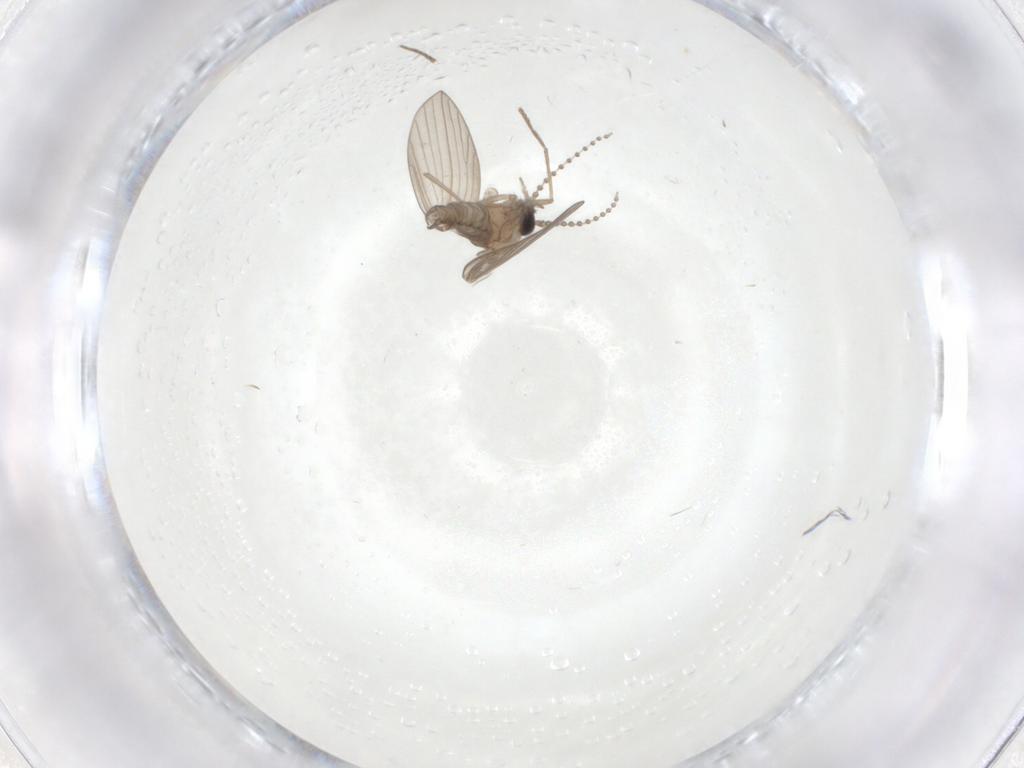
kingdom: Animalia
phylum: Arthropoda
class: Insecta
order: Diptera
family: Psychodidae
